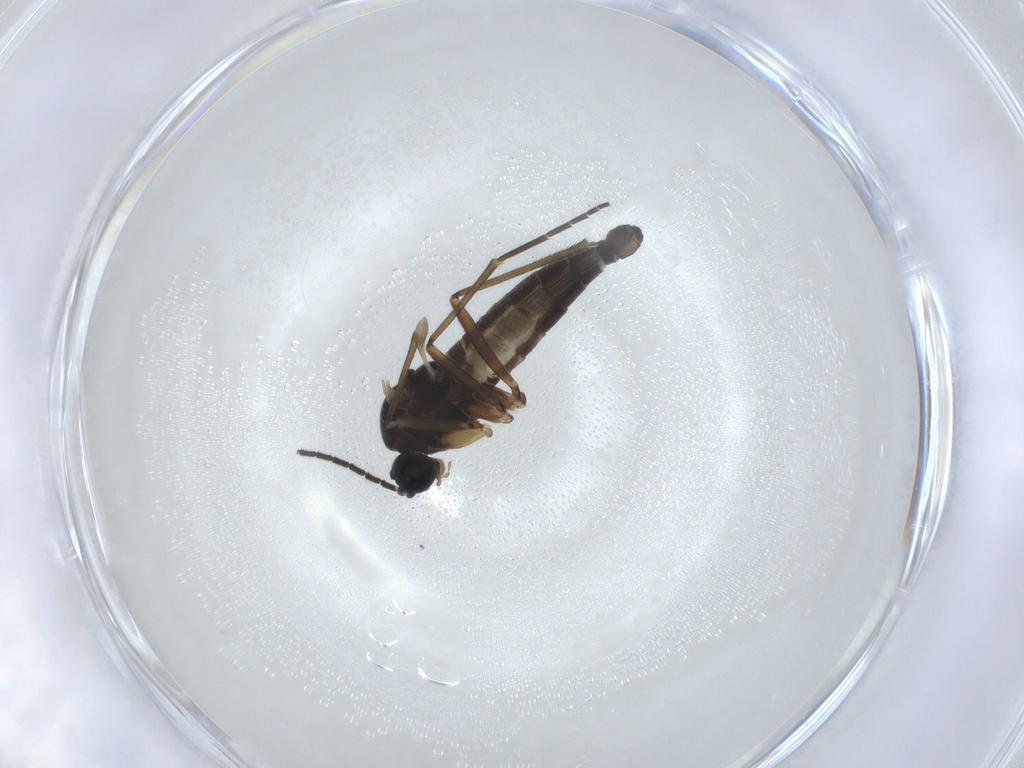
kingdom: Animalia
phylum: Arthropoda
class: Insecta
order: Diptera
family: Sciaridae
